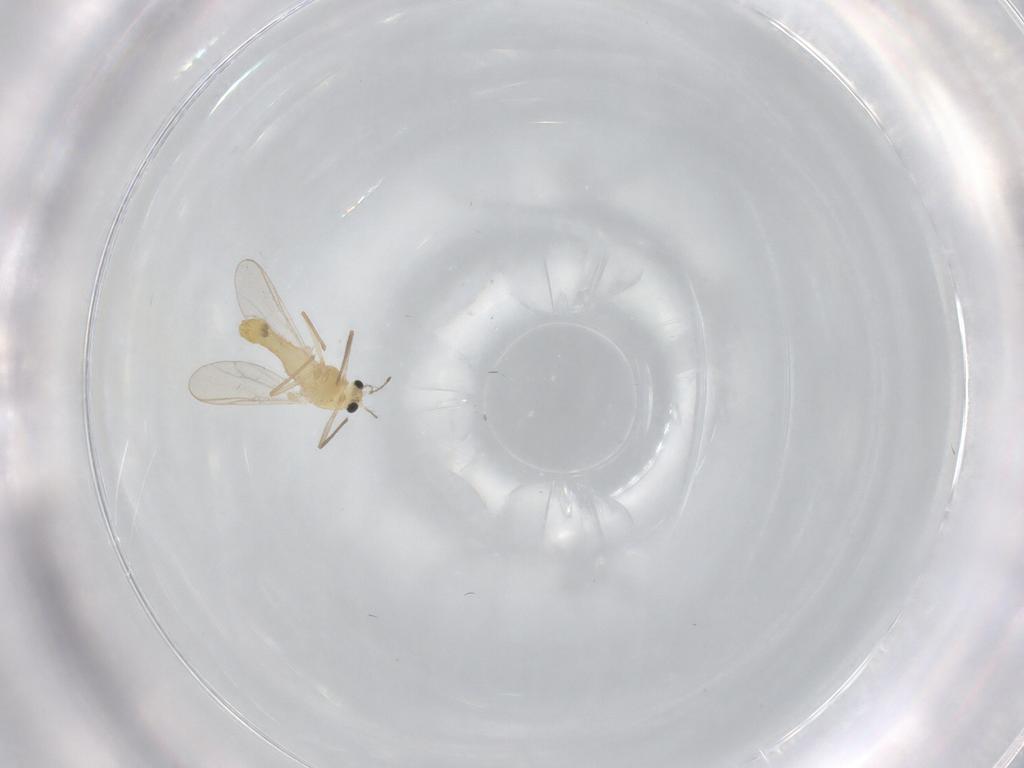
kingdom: Animalia
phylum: Arthropoda
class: Insecta
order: Diptera
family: Chironomidae
